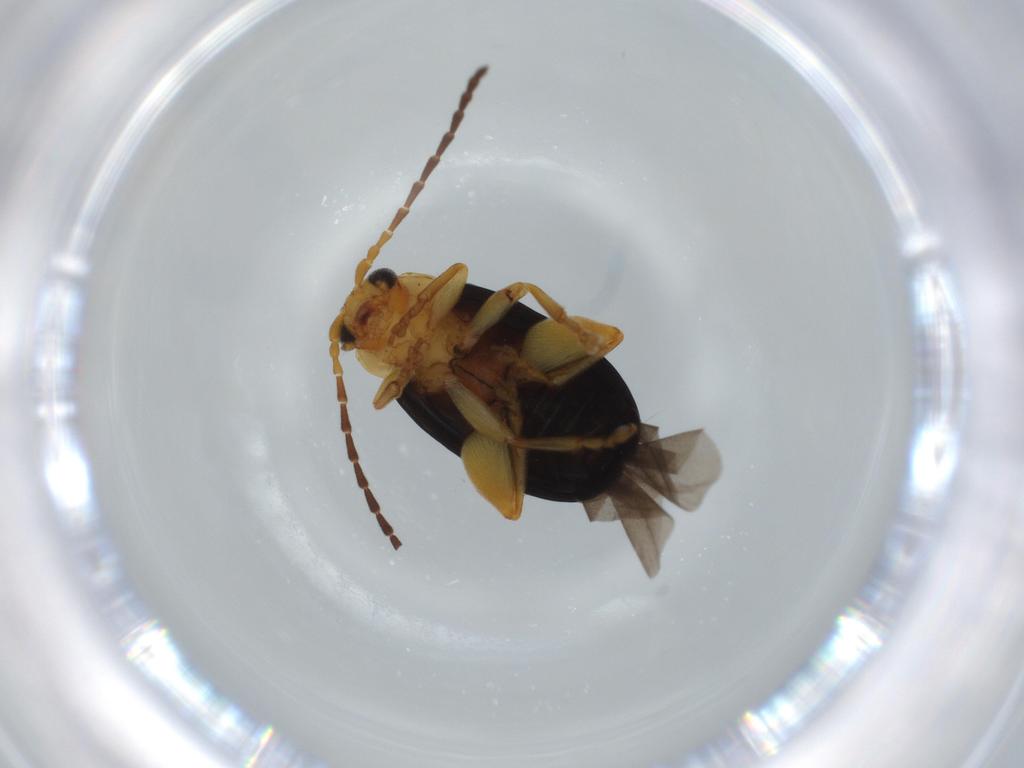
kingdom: Animalia
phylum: Arthropoda
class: Insecta
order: Coleoptera
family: Chrysomelidae
